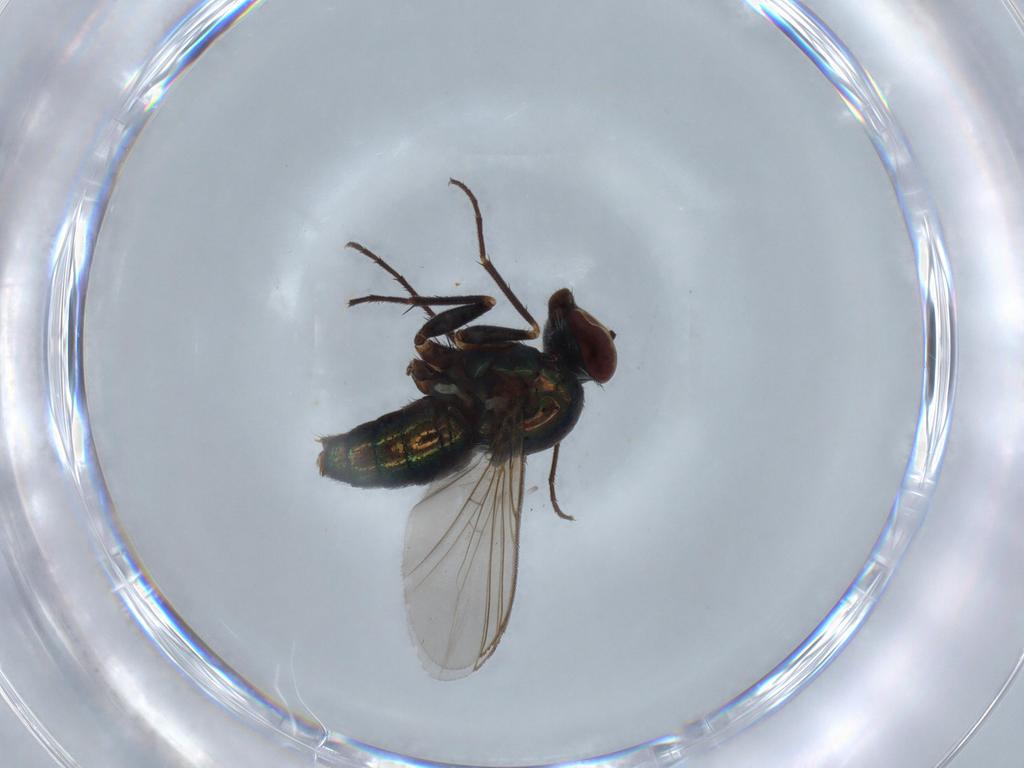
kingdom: Animalia
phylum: Arthropoda
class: Insecta
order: Diptera
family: Dolichopodidae
